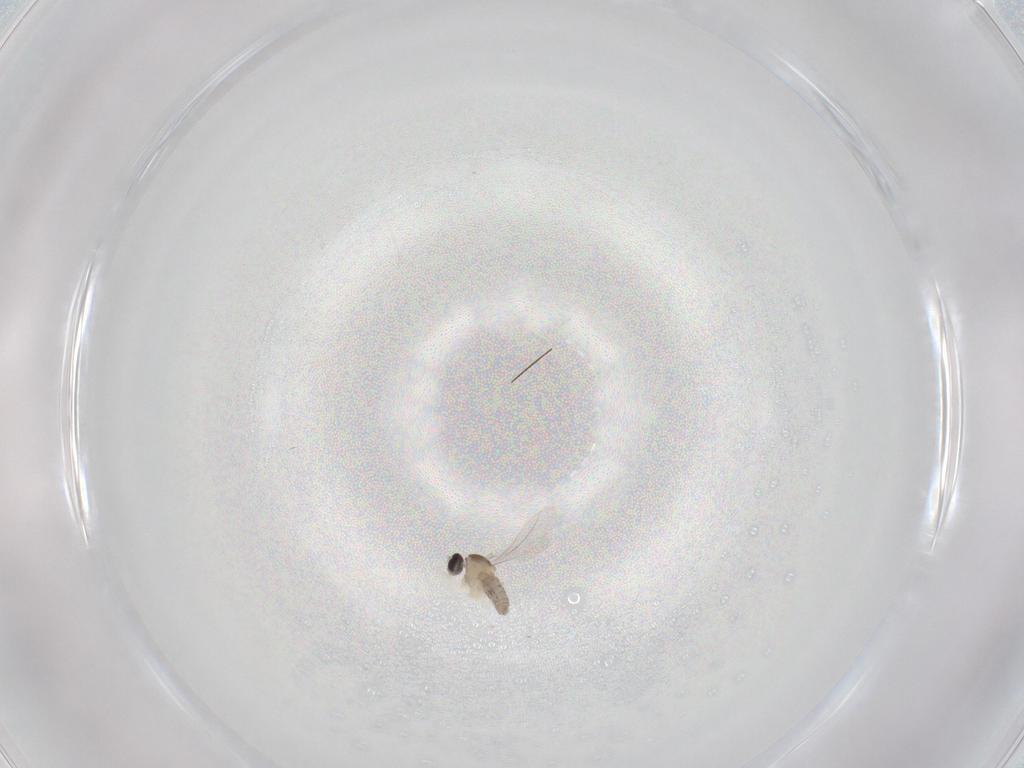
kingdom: Animalia
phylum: Arthropoda
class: Insecta
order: Diptera
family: Cecidomyiidae
